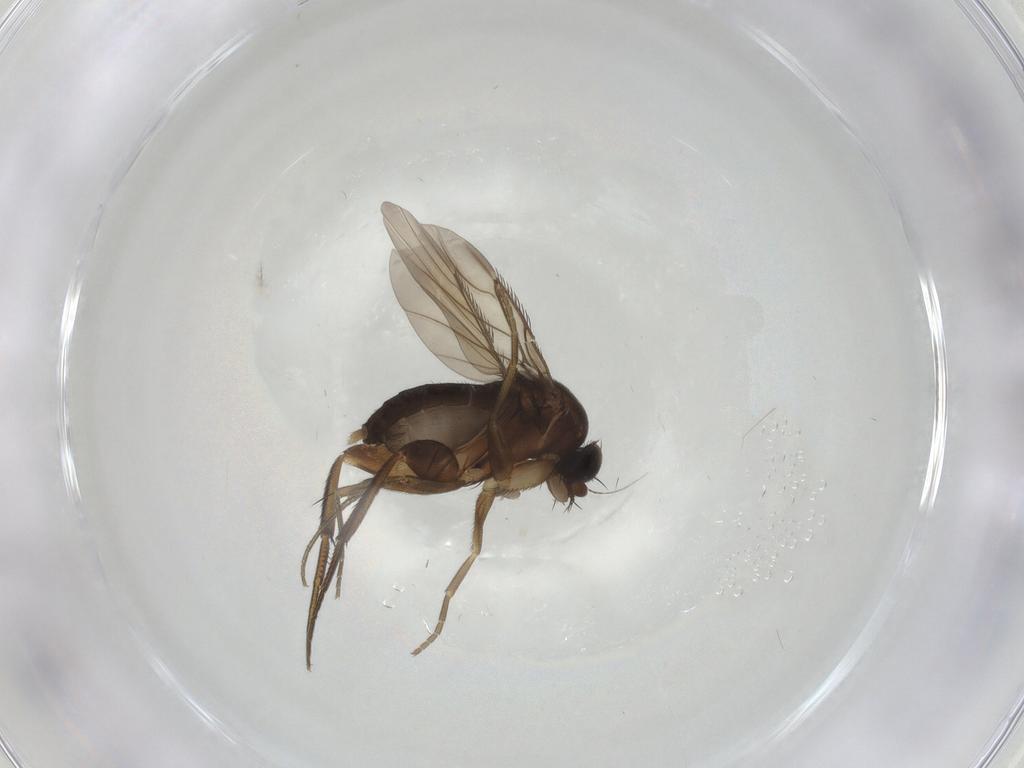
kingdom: Animalia
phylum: Arthropoda
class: Insecta
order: Diptera
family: Phoridae
